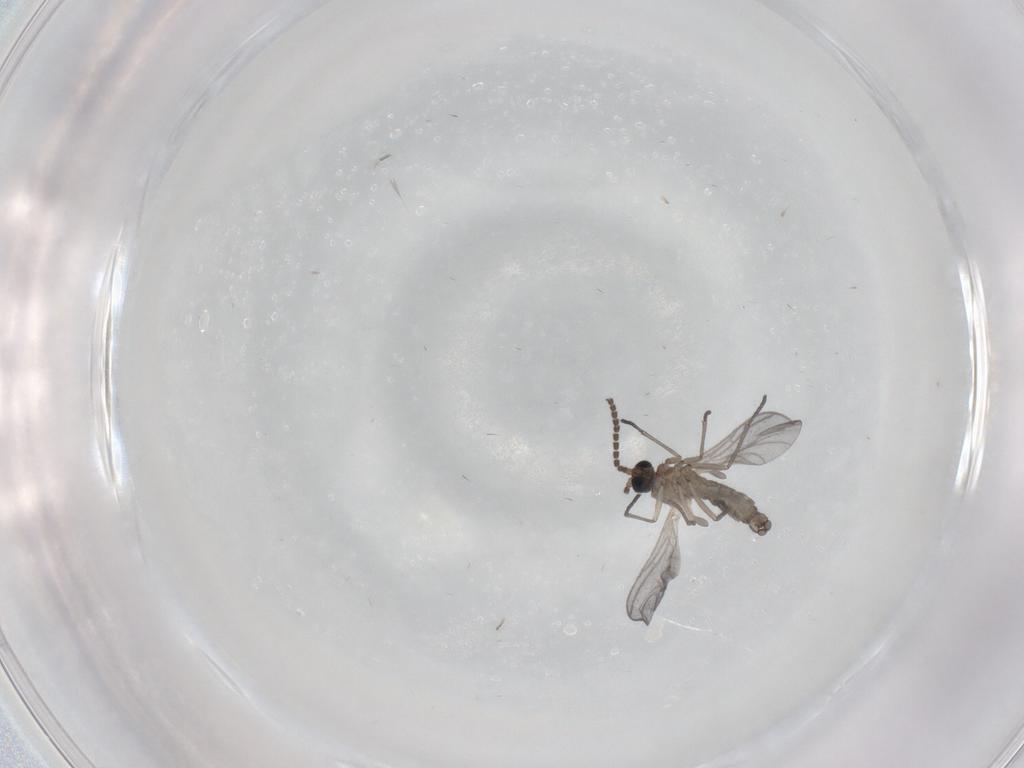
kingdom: Animalia
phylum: Arthropoda
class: Insecta
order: Diptera
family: Sciaridae
